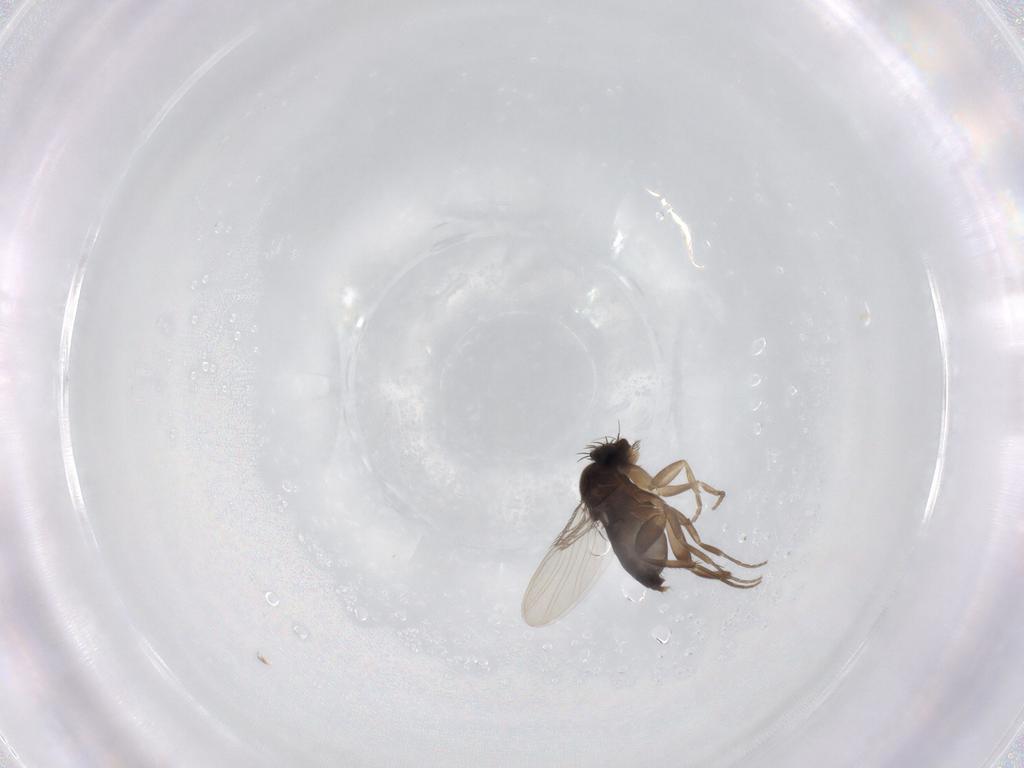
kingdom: Animalia
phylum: Arthropoda
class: Insecta
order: Diptera
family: Phoridae
